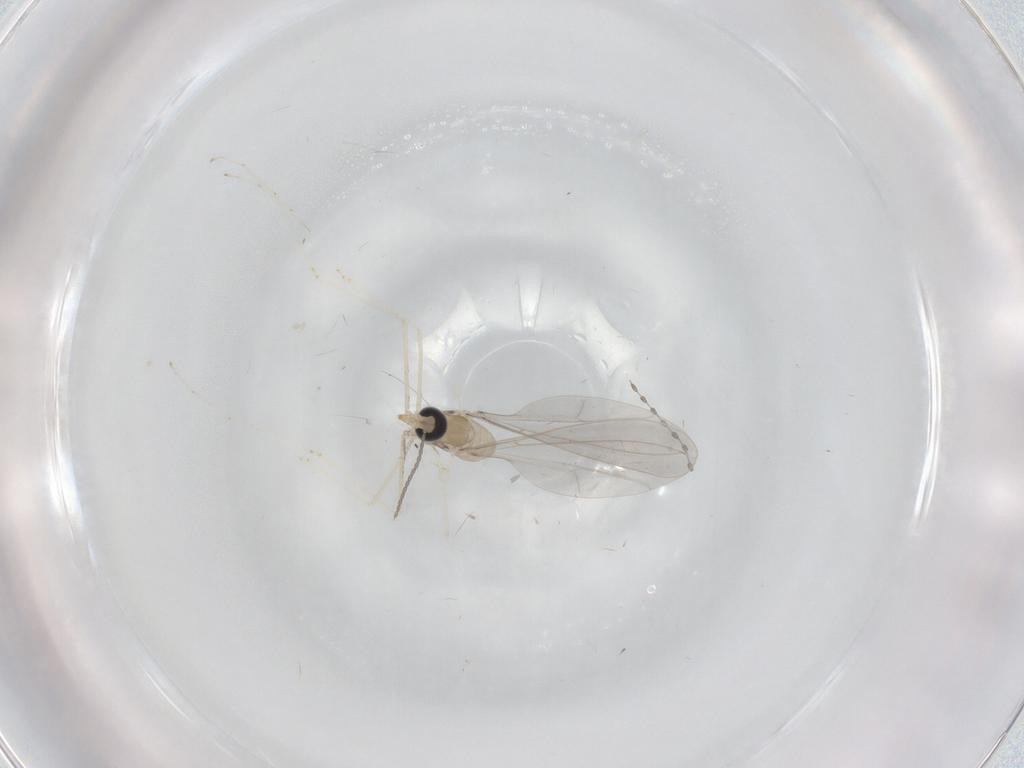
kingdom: Animalia
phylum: Arthropoda
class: Insecta
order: Diptera
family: Cecidomyiidae
